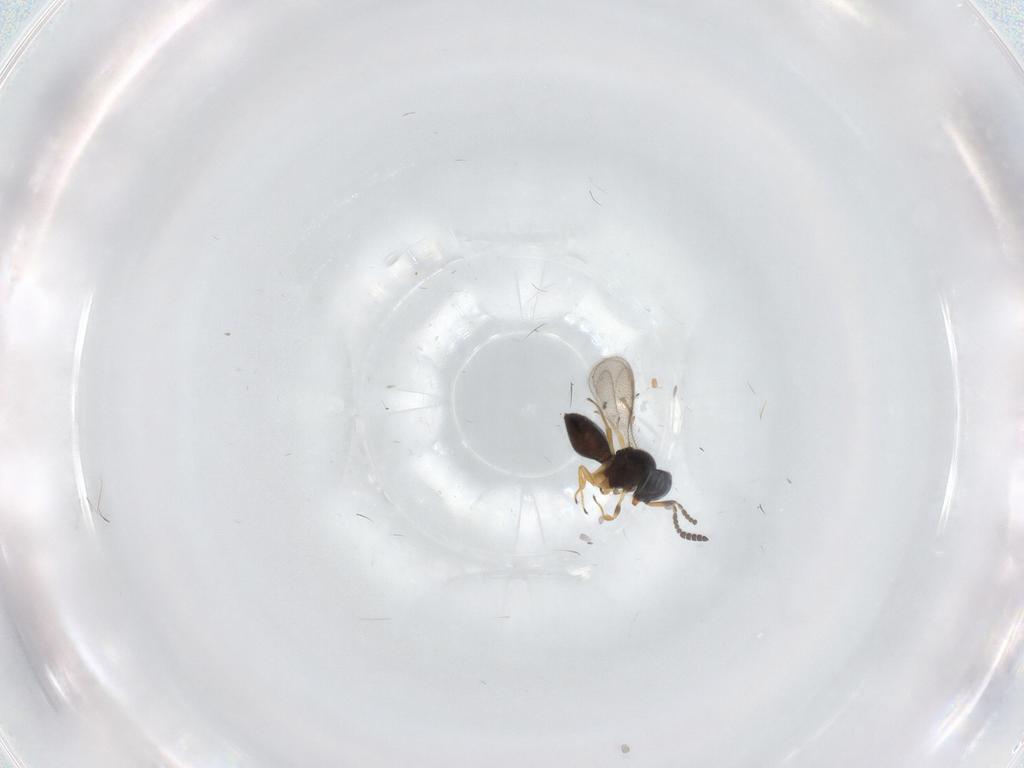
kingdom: Animalia
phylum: Arthropoda
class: Insecta
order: Hymenoptera
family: Scelionidae
